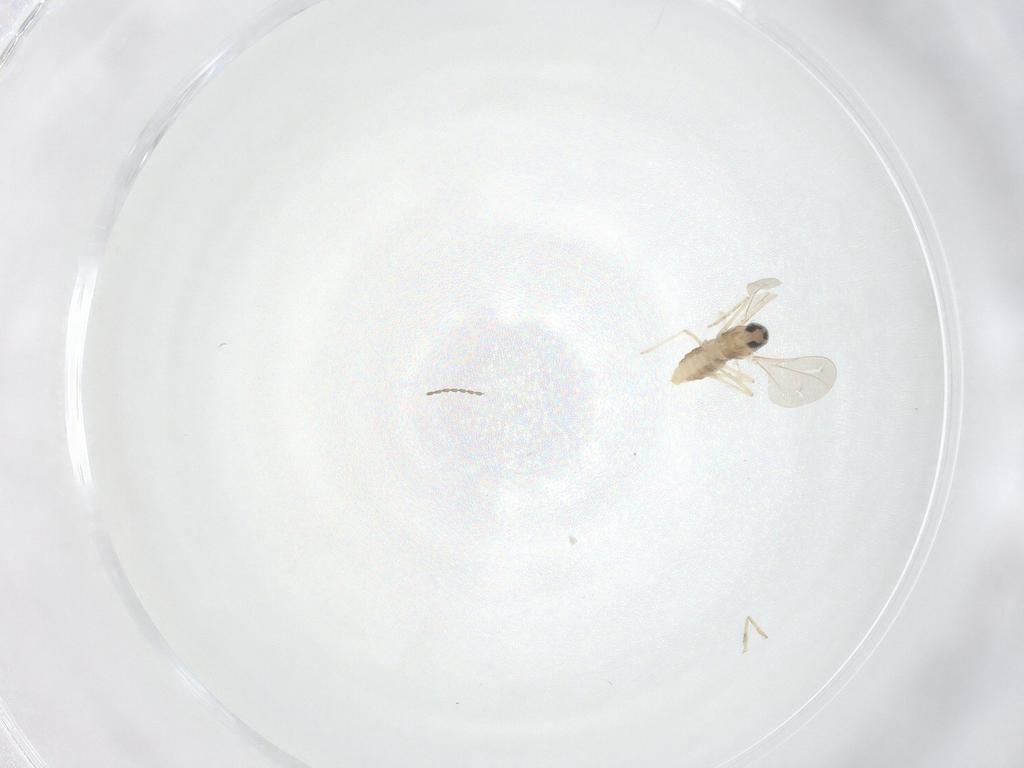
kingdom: Animalia
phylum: Arthropoda
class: Insecta
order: Diptera
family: Cecidomyiidae
